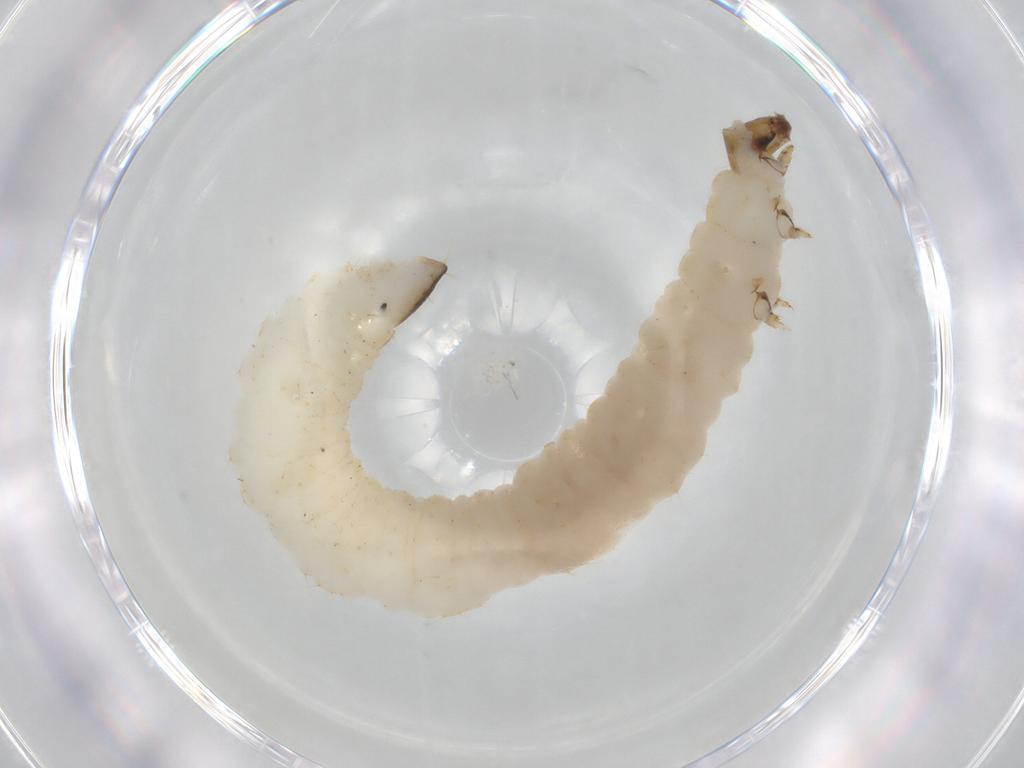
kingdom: Animalia
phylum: Arthropoda
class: Insecta
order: Coleoptera
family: Chrysomelidae
